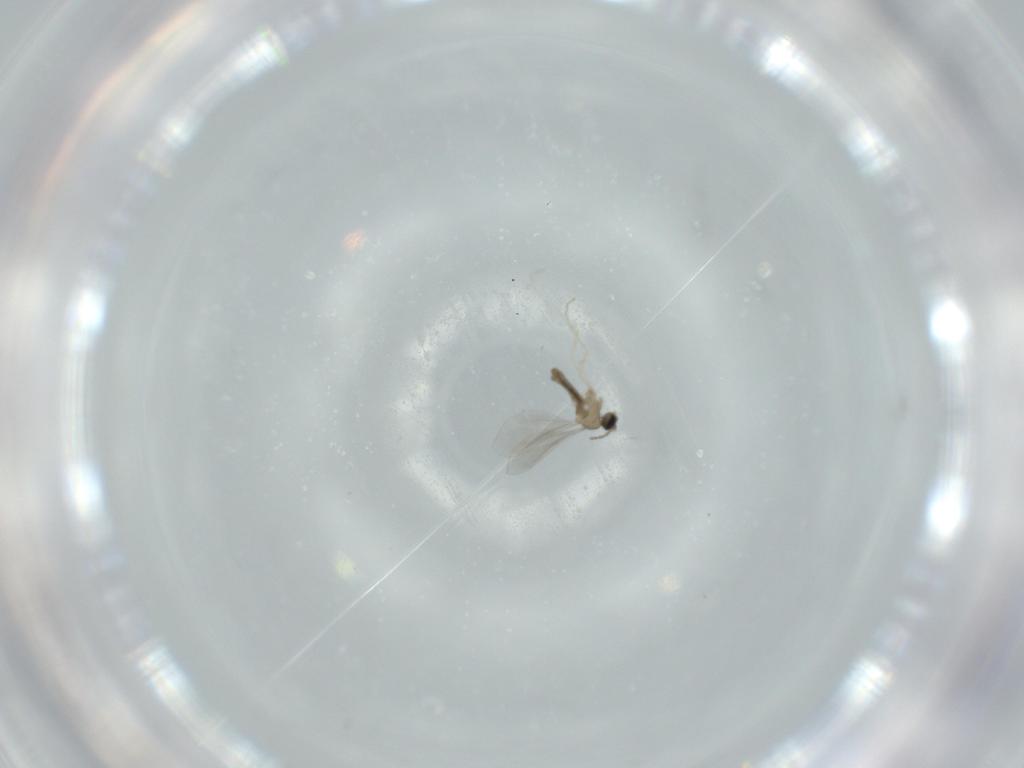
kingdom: Animalia
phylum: Arthropoda
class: Insecta
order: Diptera
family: Cecidomyiidae
